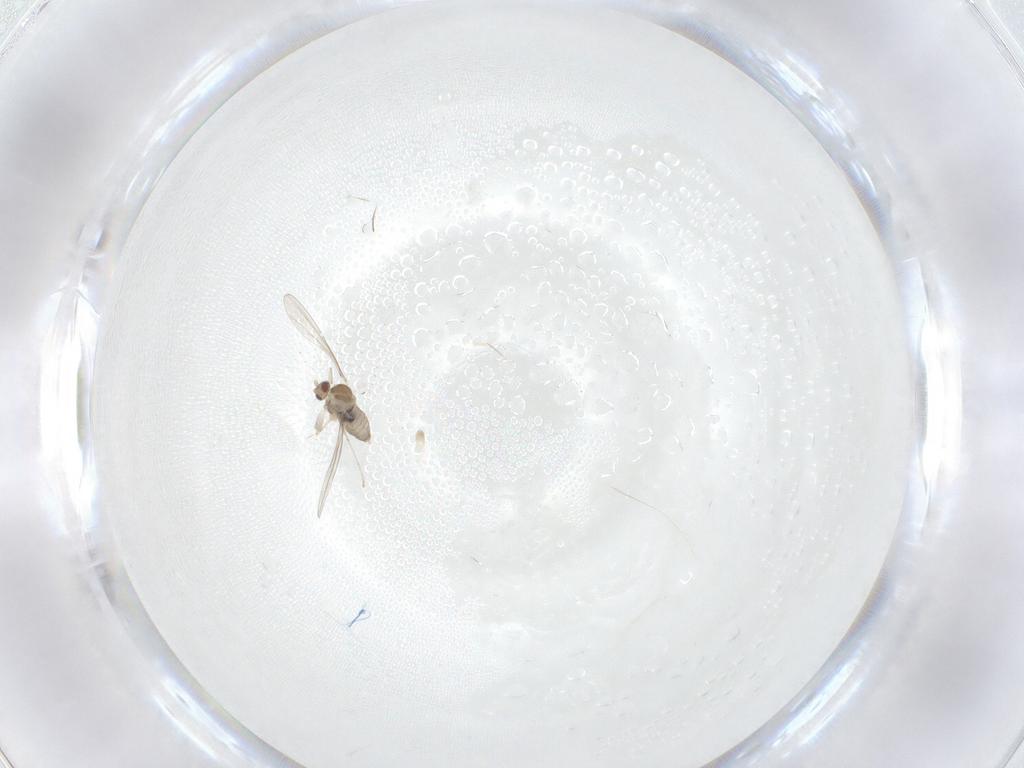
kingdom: Animalia
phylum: Arthropoda
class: Insecta
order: Diptera
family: Cecidomyiidae
